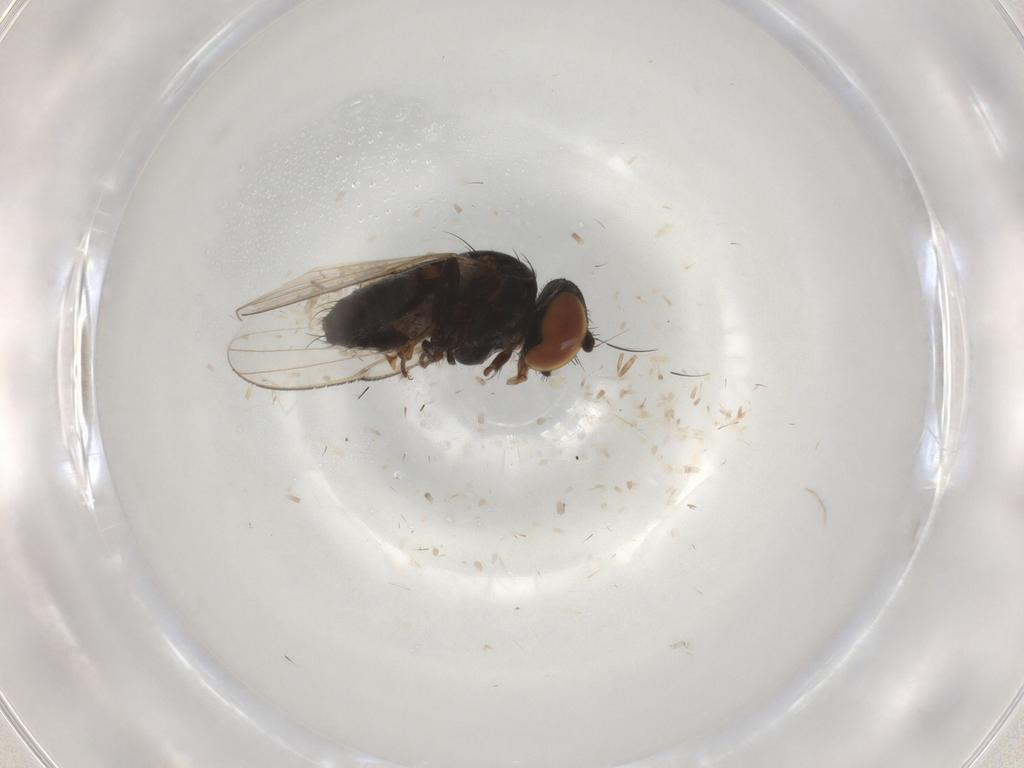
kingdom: Animalia
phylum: Arthropoda
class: Insecta
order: Diptera
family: Milichiidae
